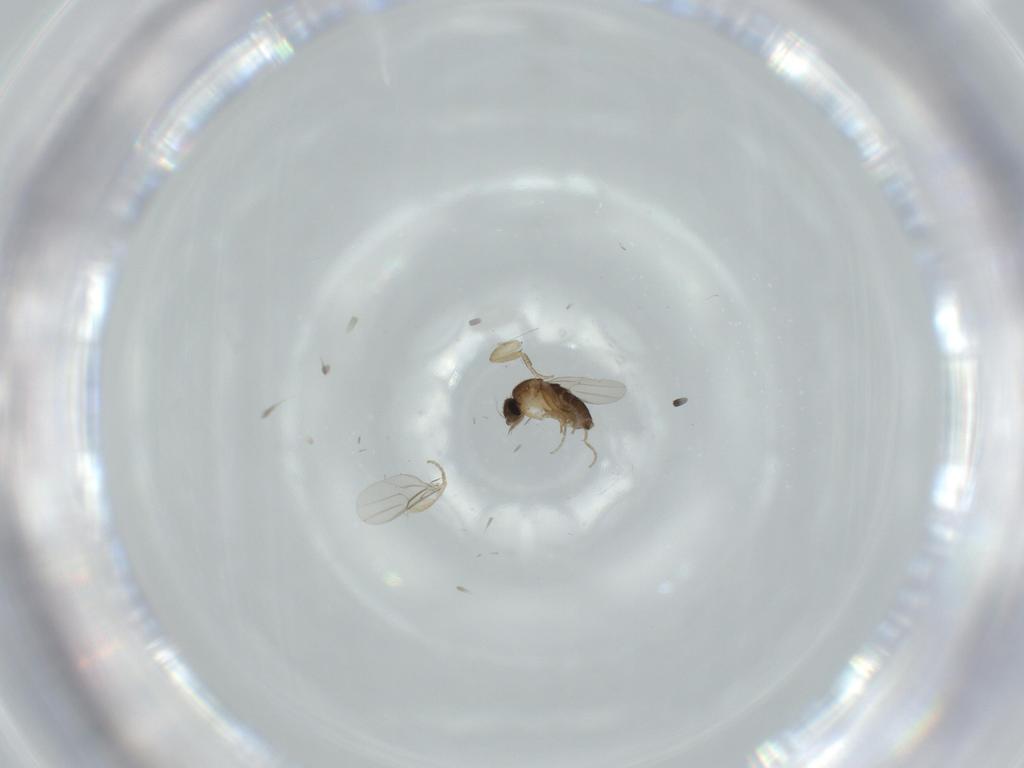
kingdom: Animalia
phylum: Arthropoda
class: Insecta
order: Diptera
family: Phoridae
